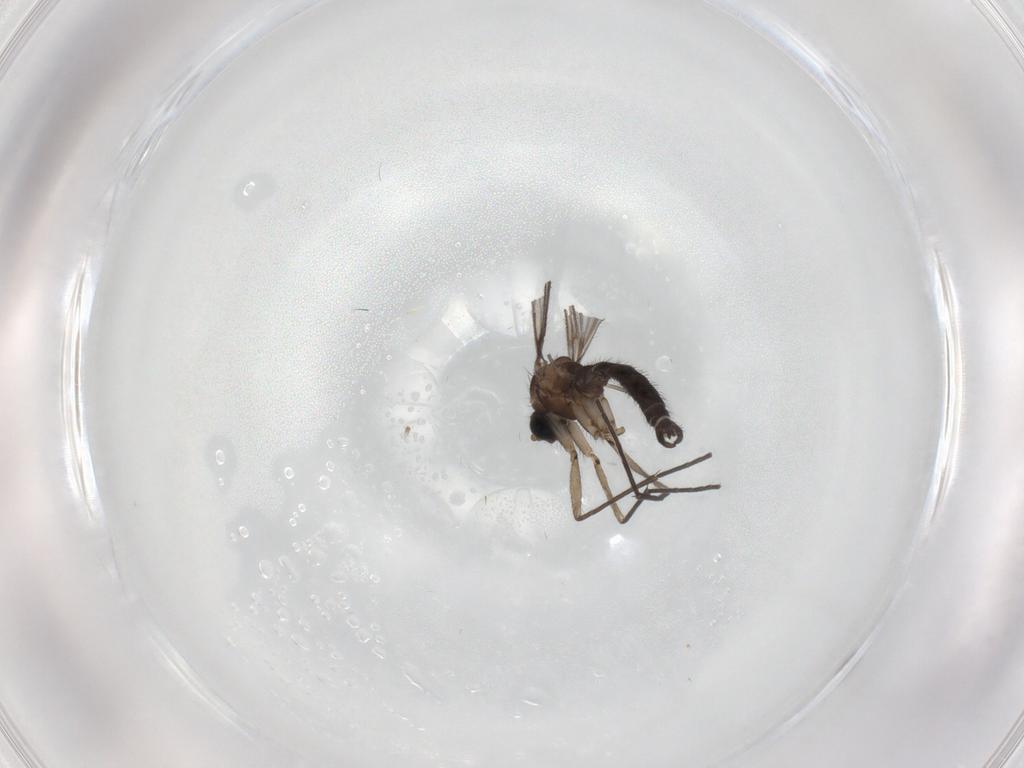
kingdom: Animalia
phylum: Arthropoda
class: Insecta
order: Diptera
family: Sciaridae
